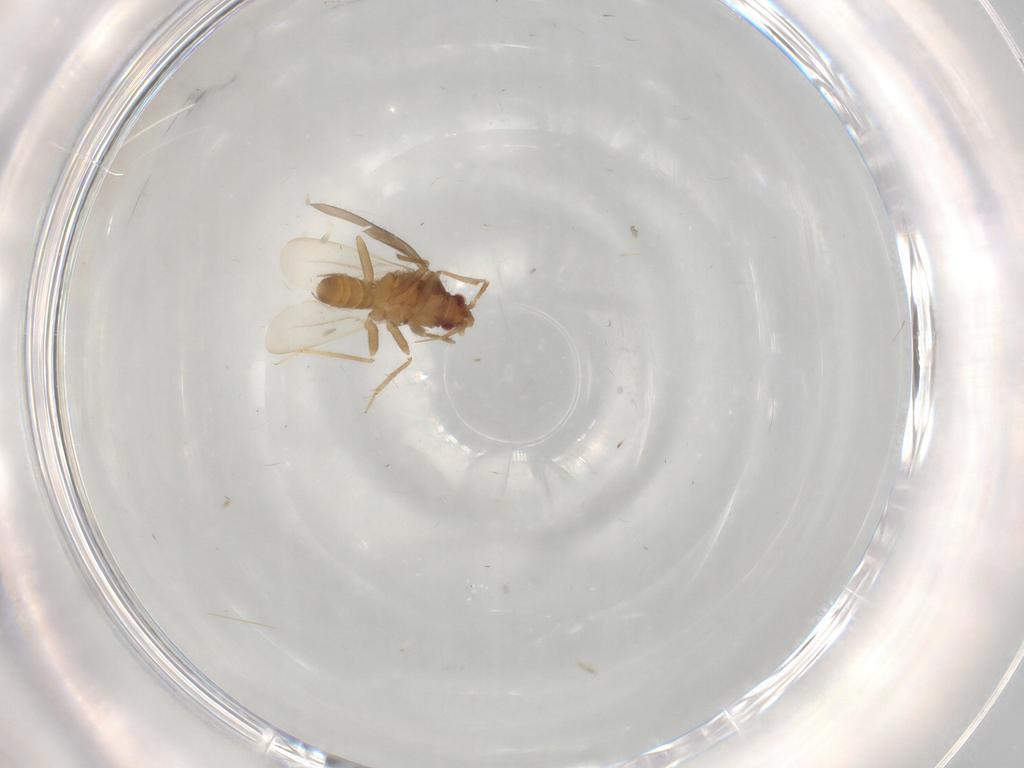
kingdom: Animalia
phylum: Arthropoda
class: Insecta
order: Hemiptera
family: Ceratocombidae
